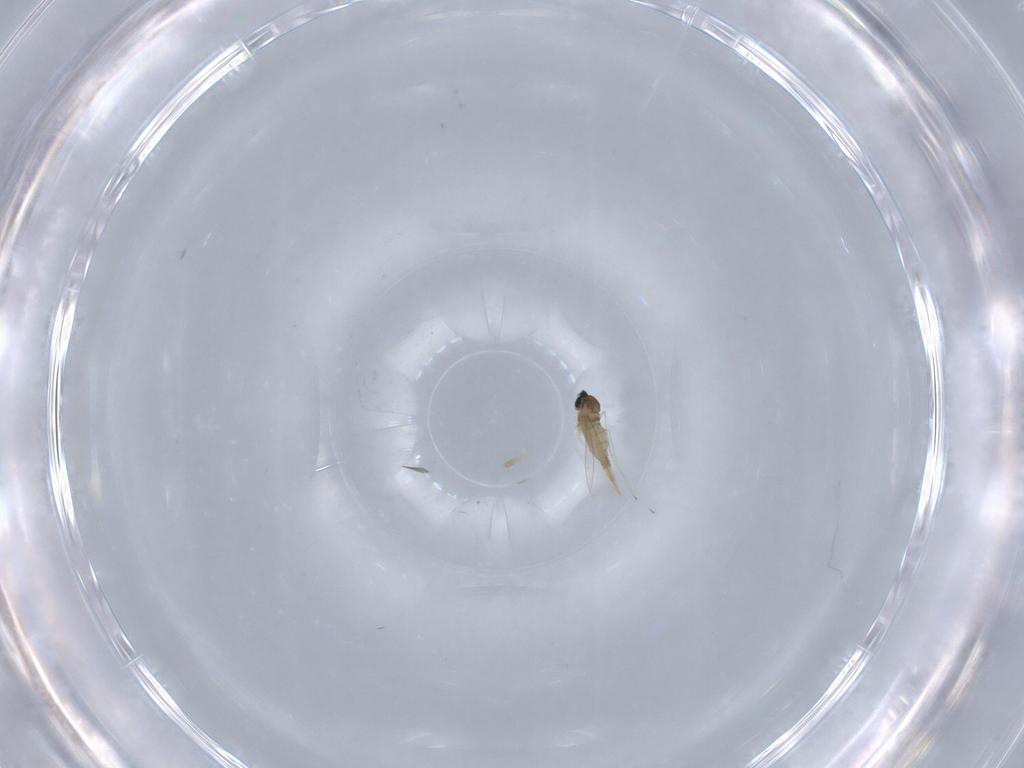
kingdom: Animalia
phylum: Arthropoda
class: Insecta
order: Diptera
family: Cecidomyiidae
